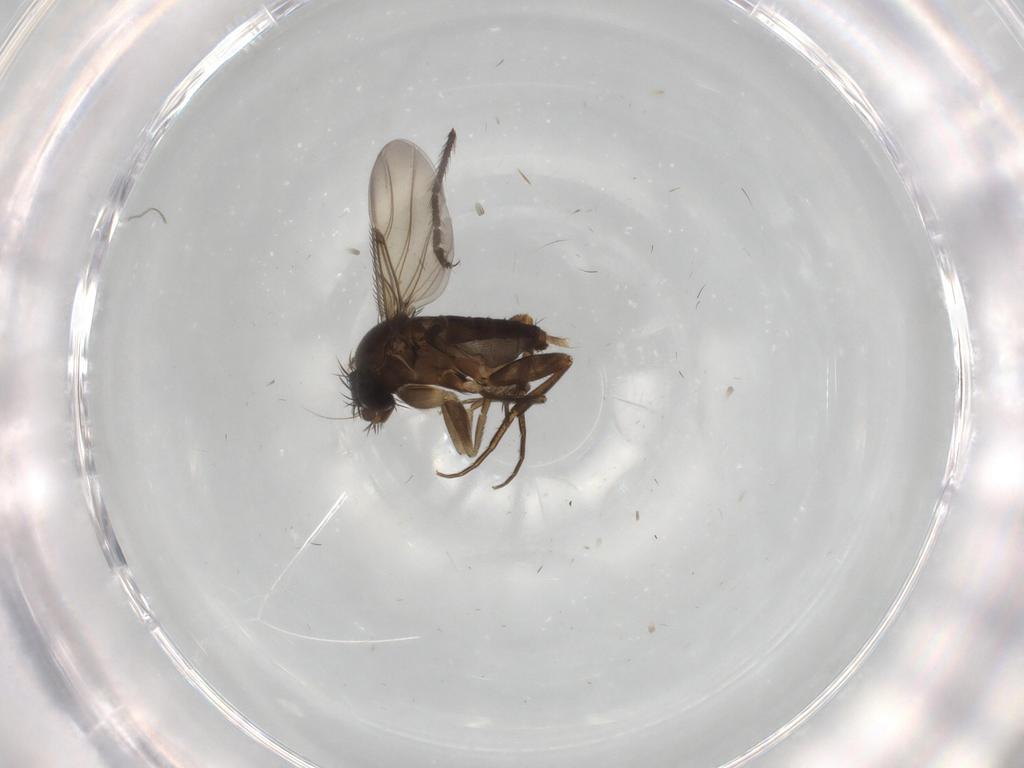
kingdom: Animalia
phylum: Arthropoda
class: Insecta
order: Diptera
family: Phoridae
